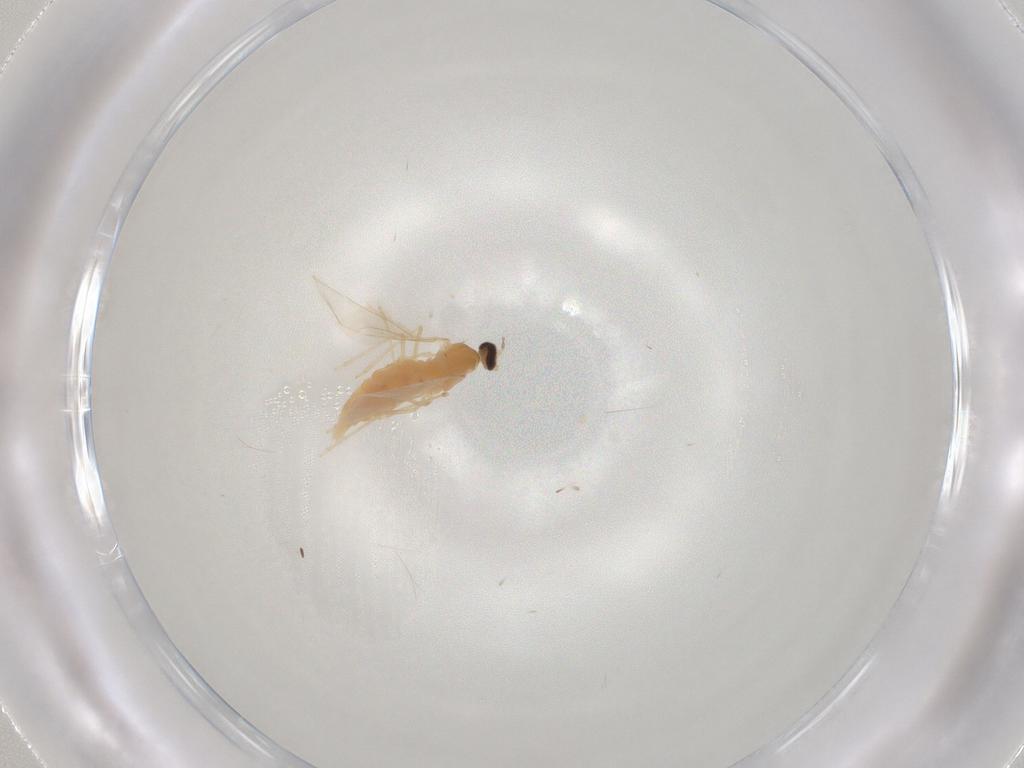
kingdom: Animalia
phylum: Arthropoda
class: Insecta
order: Diptera
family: Cecidomyiidae
